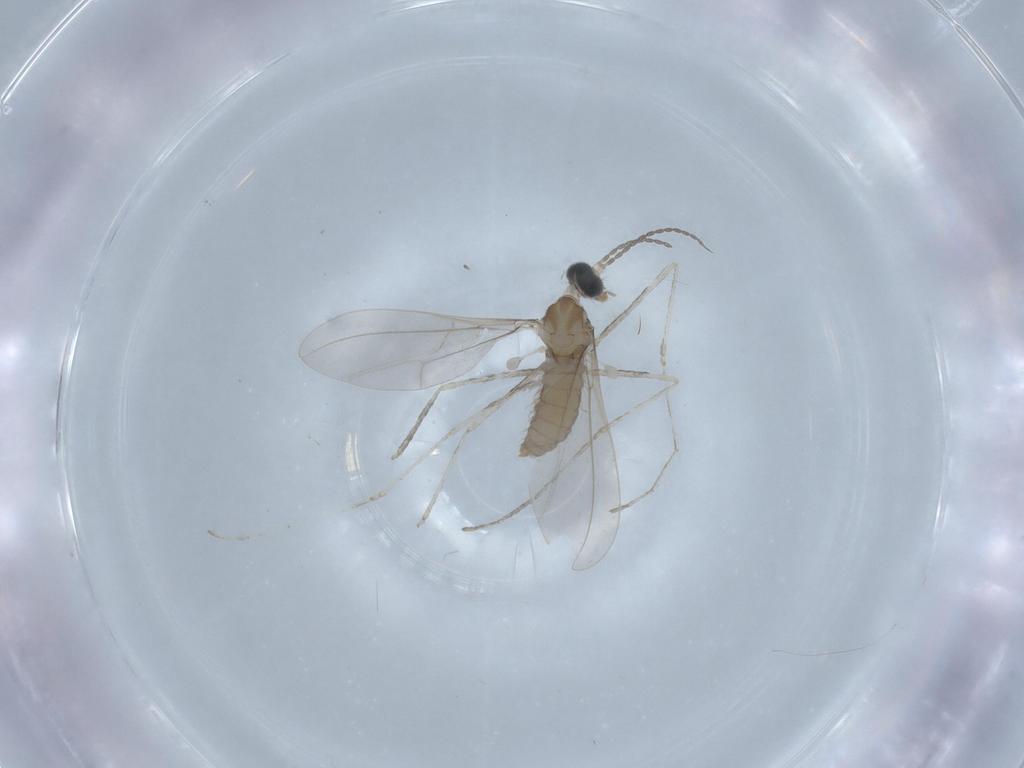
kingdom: Animalia
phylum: Arthropoda
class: Insecta
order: Diptera
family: Chironomidae
